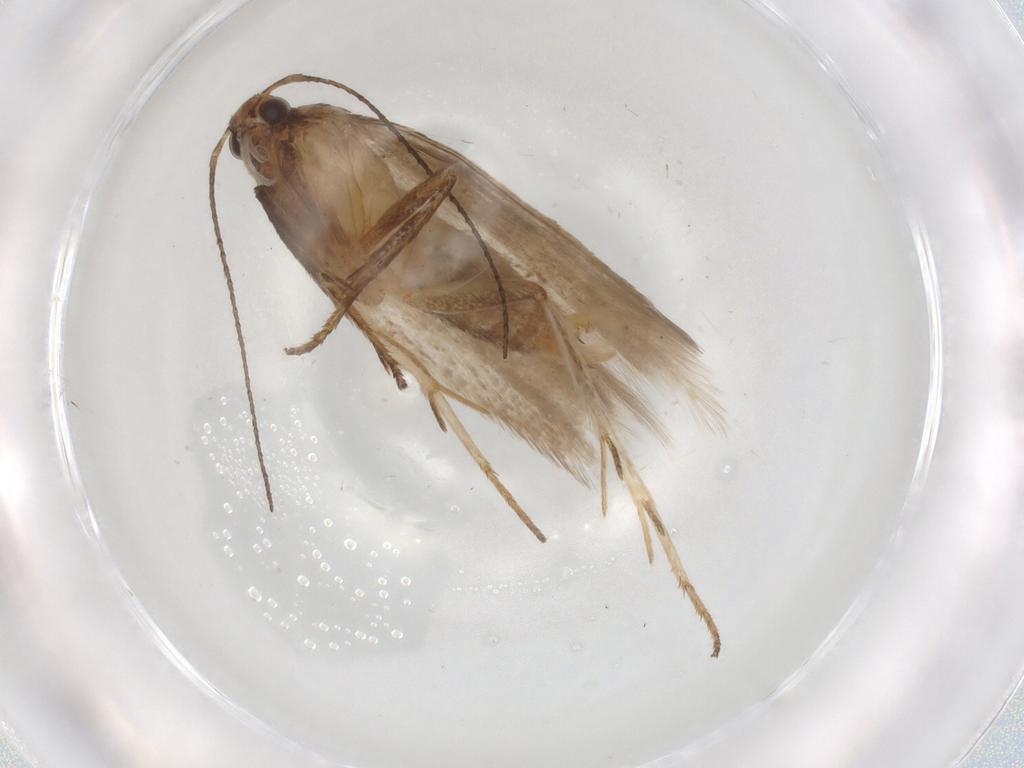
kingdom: Animalia
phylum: Arthropoda
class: Insecta
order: Lepidoptera
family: Gelechiidae
